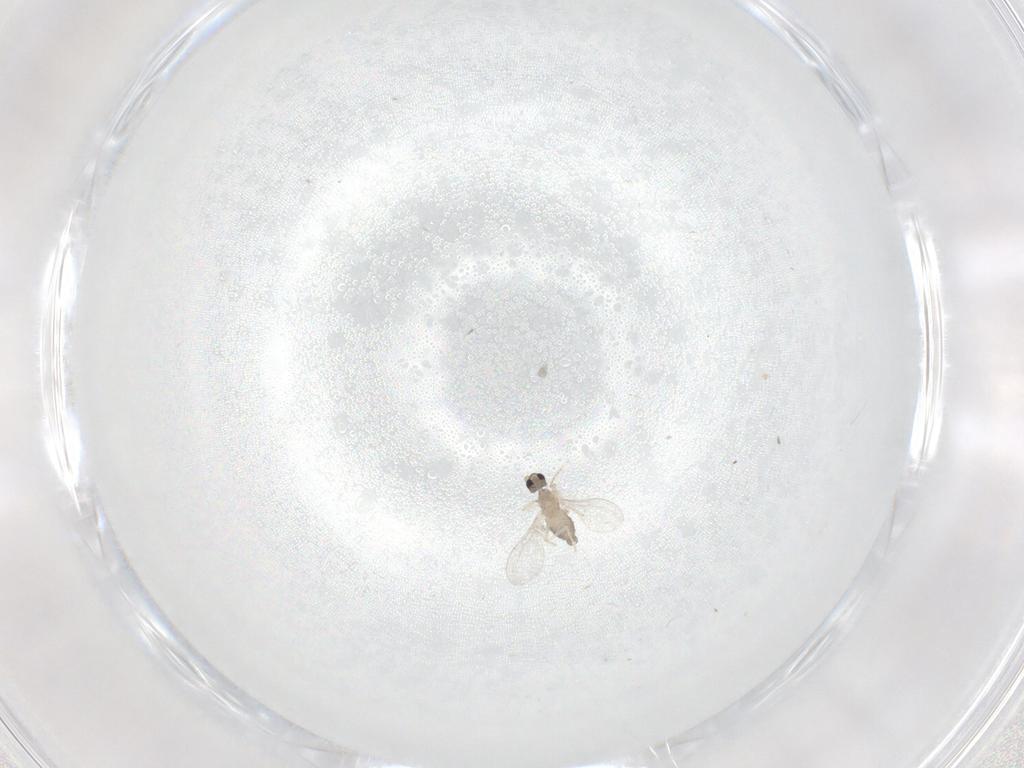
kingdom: Animalia
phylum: Arthropoda
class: Insecta
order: Diptera
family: Cecidomyiidae
